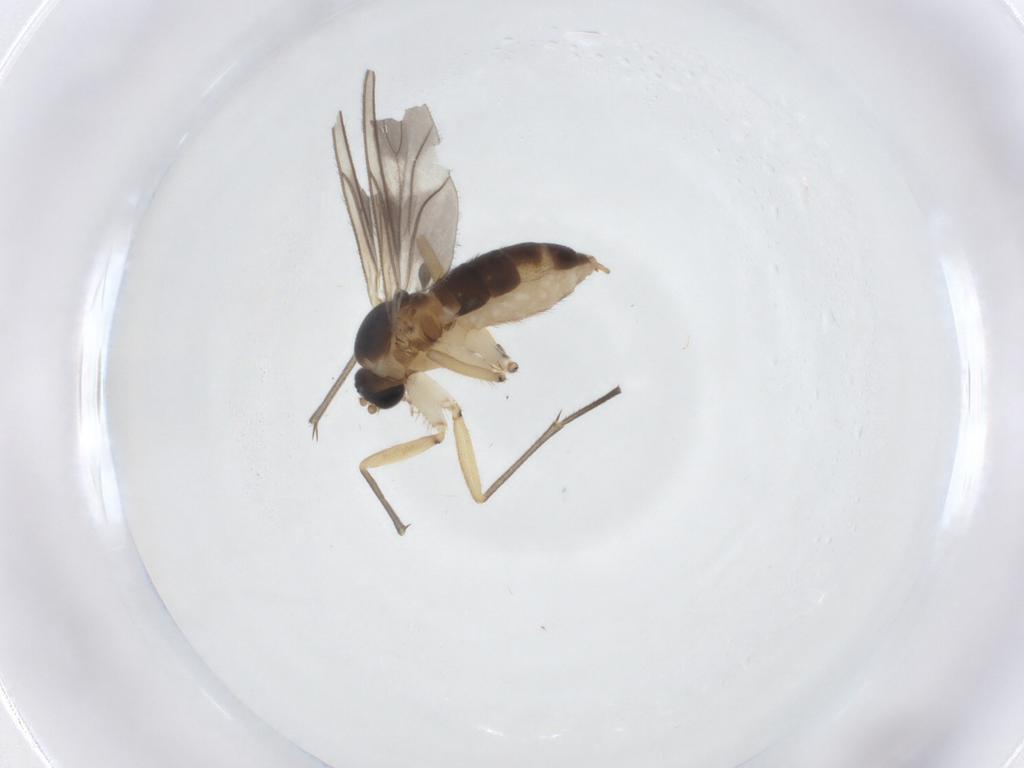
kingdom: Animalia
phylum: Arthropoda
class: Insecta
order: Diptera
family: Sciaridae
